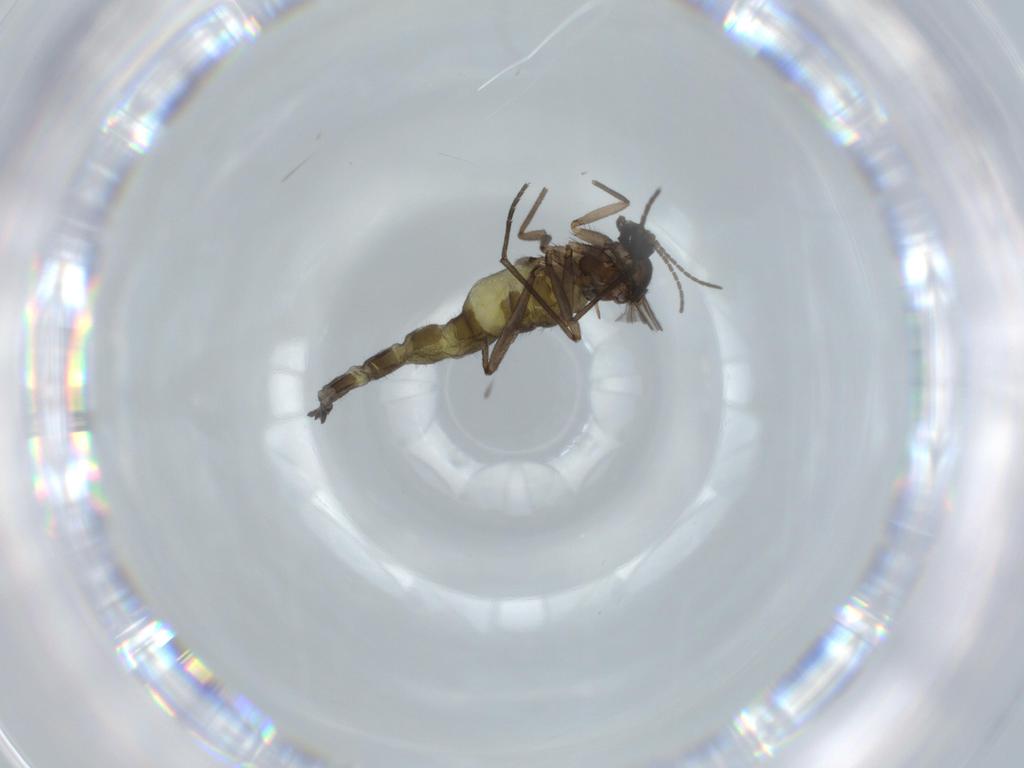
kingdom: Animalia
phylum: Arthropoda
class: Insecta
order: Diptera
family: Sciaridae
